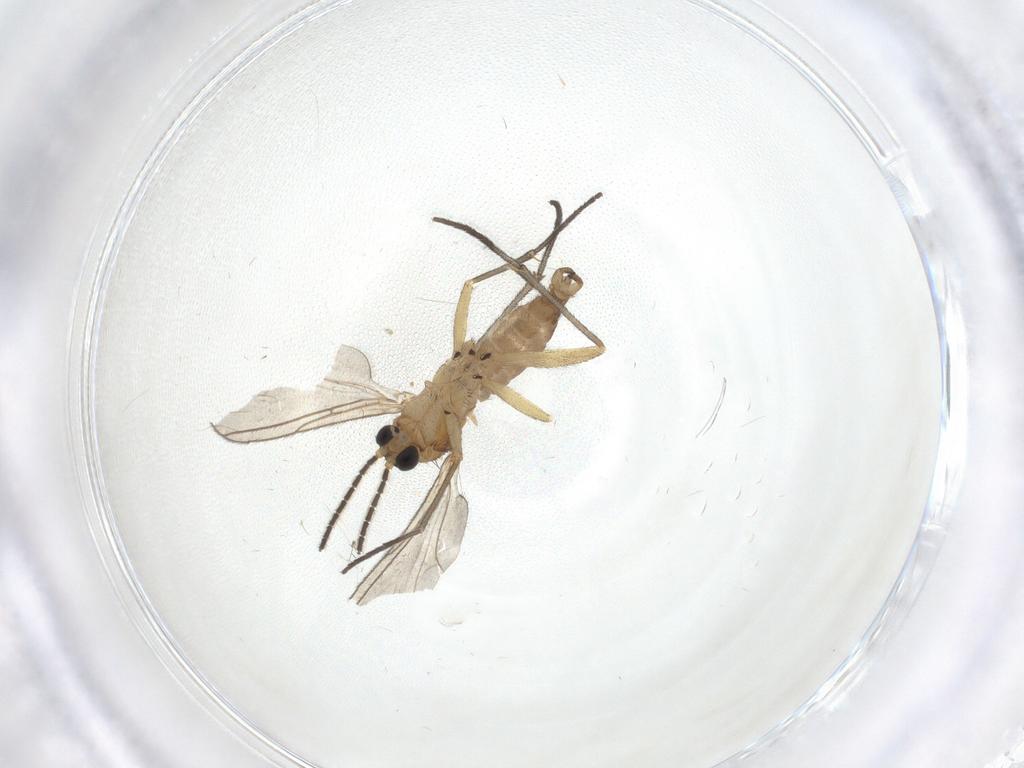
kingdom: Animalia
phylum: Arthropoda
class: Insecta
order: Diptera
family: Sciaridae
